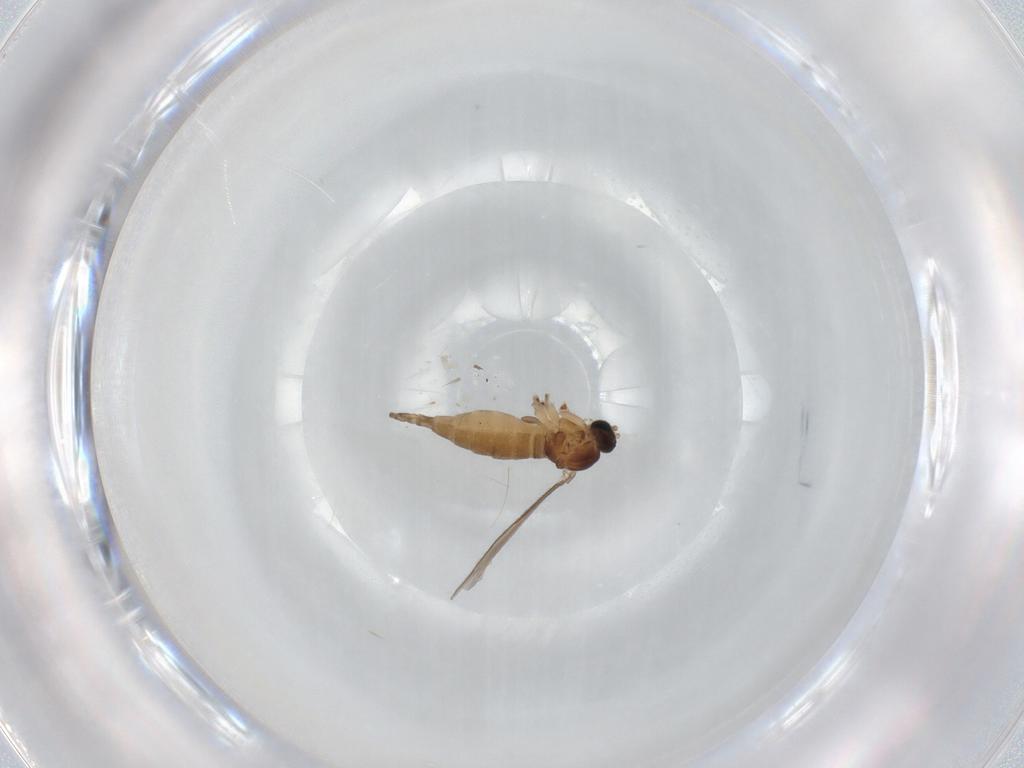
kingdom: Animalia
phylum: Arthropoda
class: Insecta
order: Diptera
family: Sciaridae
